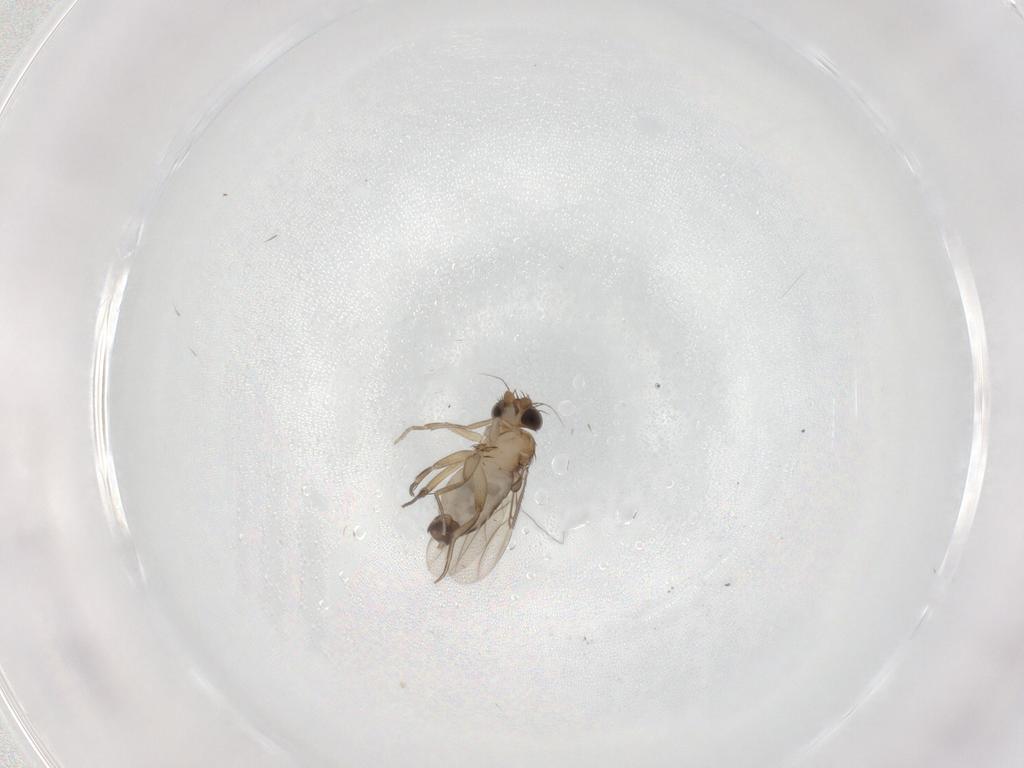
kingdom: Animalia
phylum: Arthropoda
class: Insecta
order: Diptera
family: Phoridae
